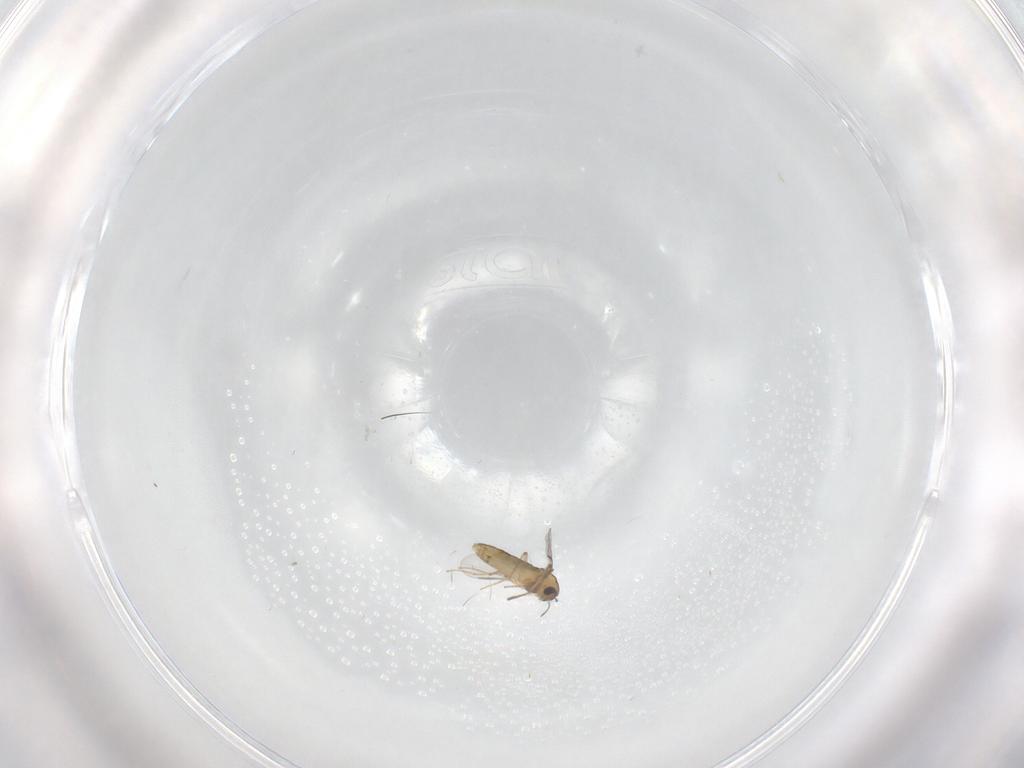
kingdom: Animalia
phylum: Arthropoda
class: Insecta
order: Diptera
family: Chironomidae
